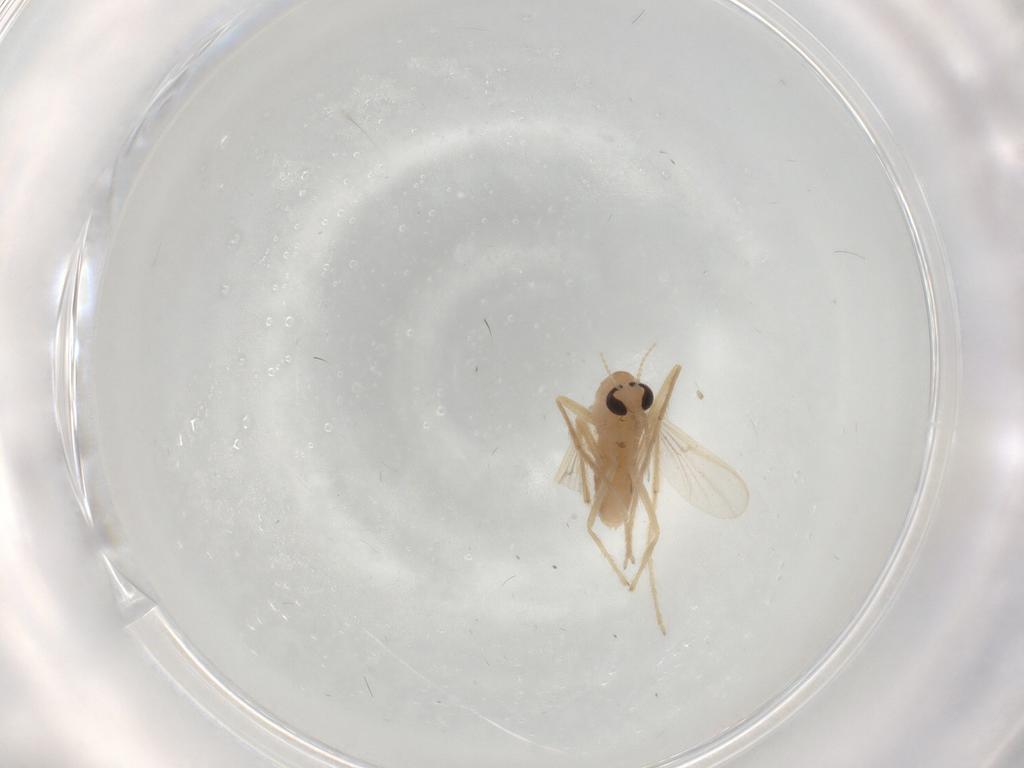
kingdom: Animalia
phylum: Arthropoda
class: Insecta
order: Diptera
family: Chironomidae
